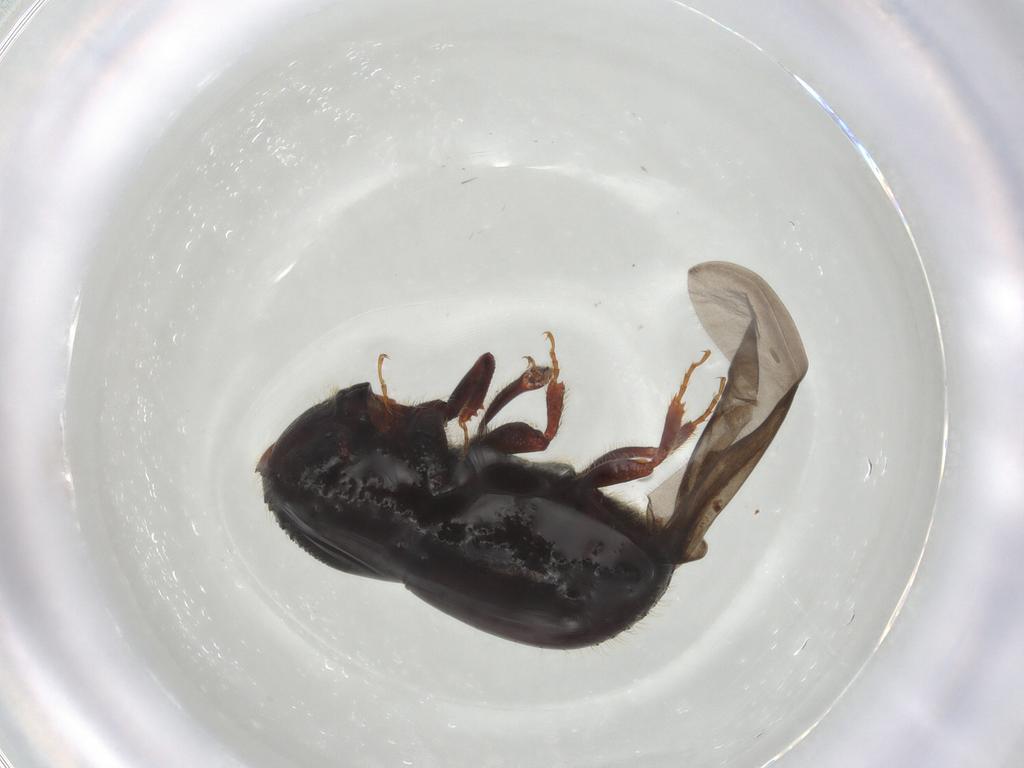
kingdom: Animalia
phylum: Arthropoda
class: Insecta
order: Coleoptera
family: Curculionidae
